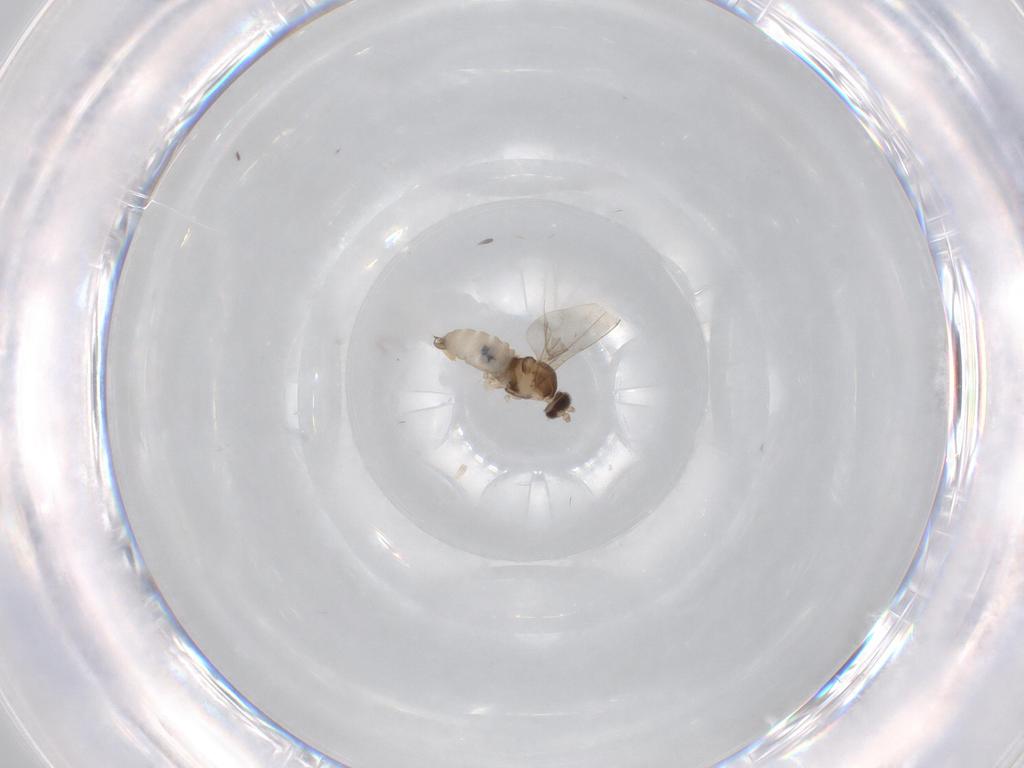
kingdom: Animalia
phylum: Arthropoda
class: Insecta
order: Diptera
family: Cecidomyiidae
